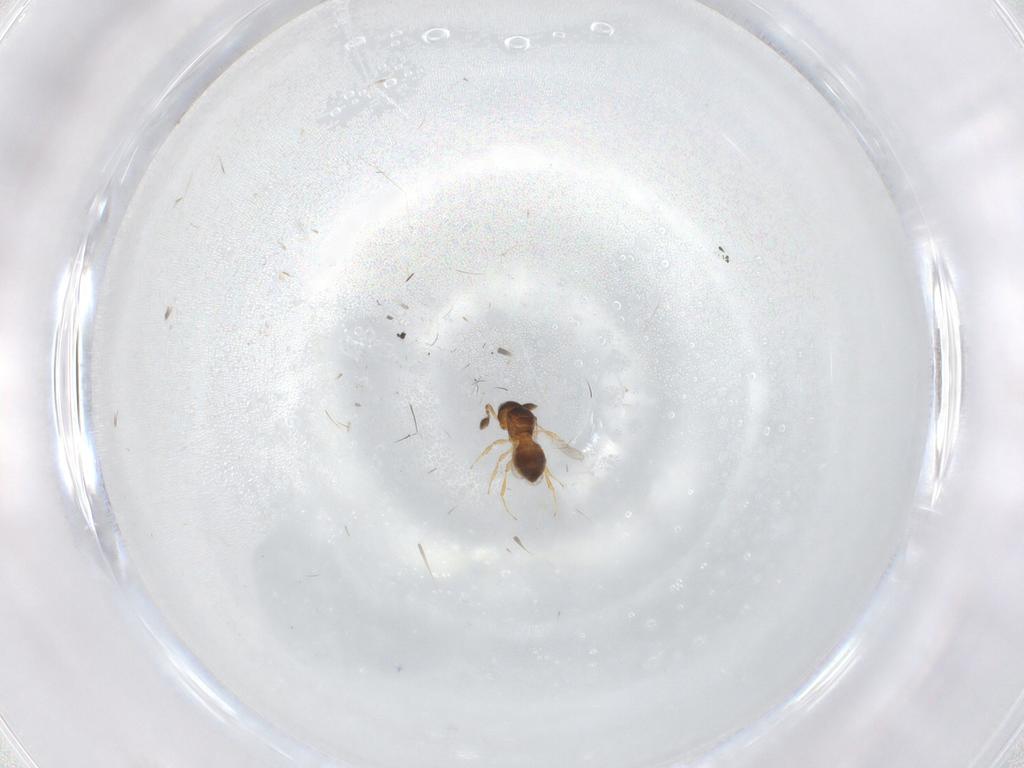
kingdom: Animalia
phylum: Arthropoda
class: Insecta
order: Hymenoptera
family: Scelionidae
